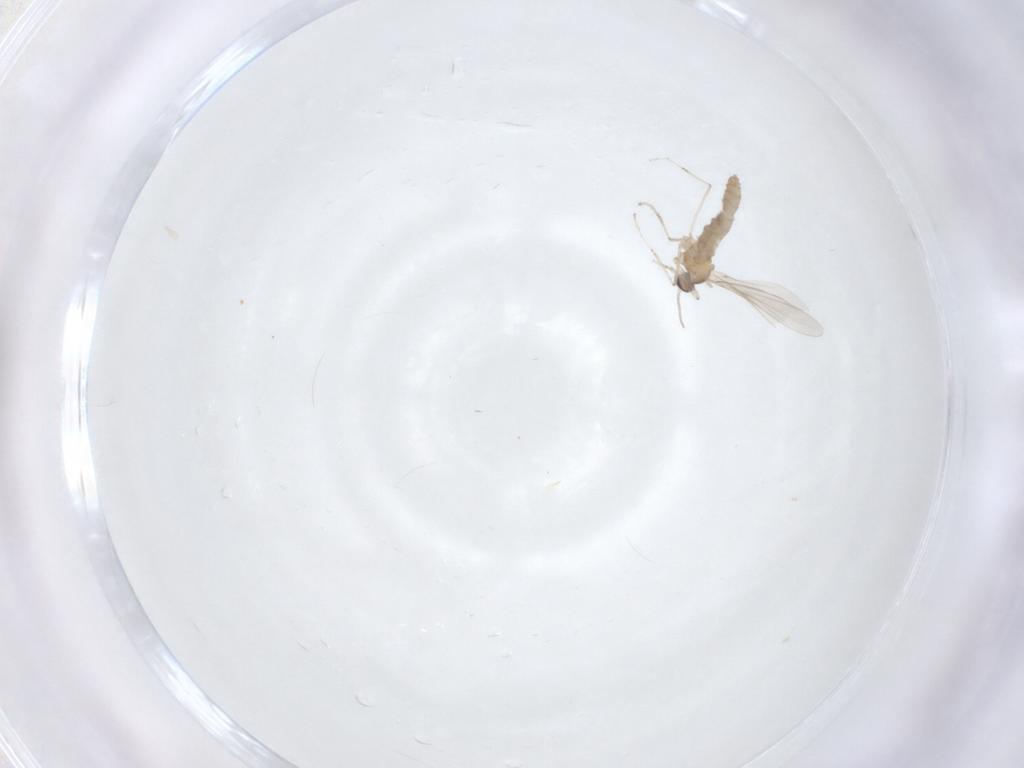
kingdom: Animalia
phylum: Arthropoda
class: Insecta
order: Diptera
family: Cecidomyiidae
